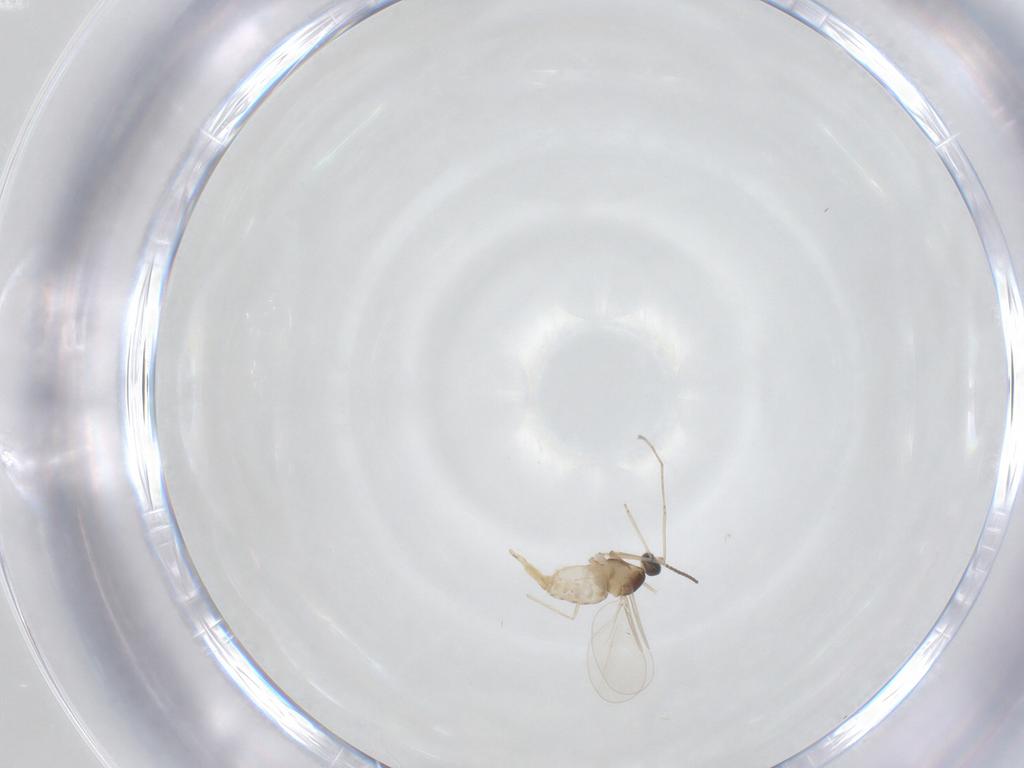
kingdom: Animalia
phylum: Arthropoda
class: Insecta
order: Diptera
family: Cecidomyiidae
